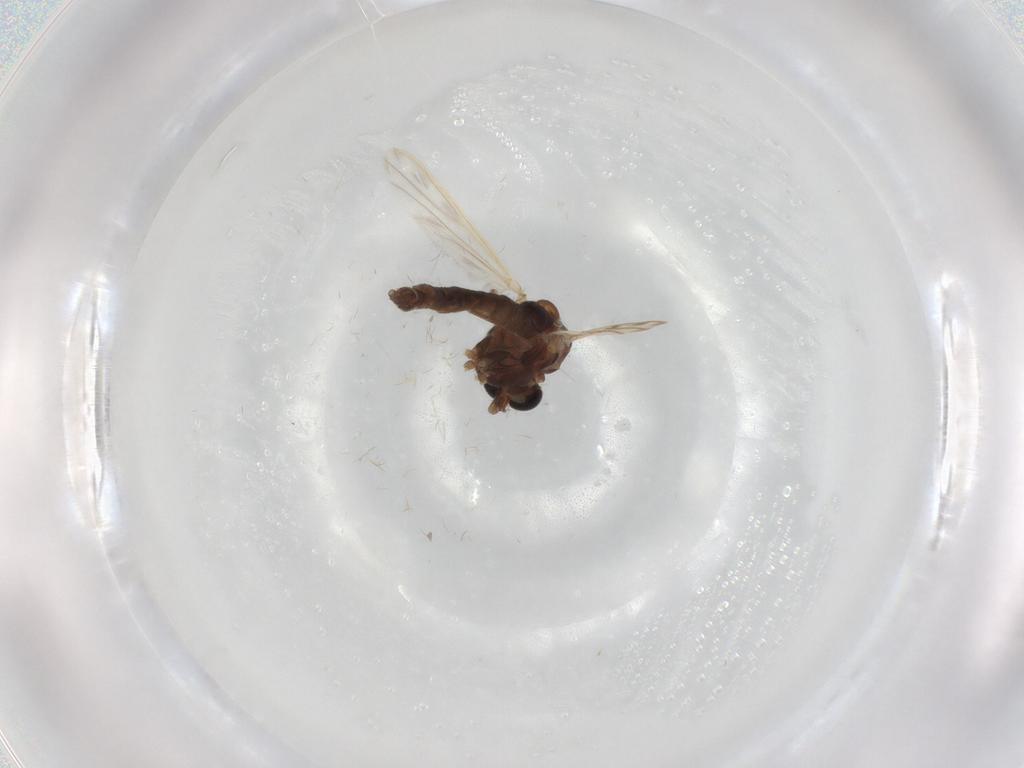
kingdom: Animalia
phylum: Arthropoda
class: Insecta
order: Diptera
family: Chironomidae
